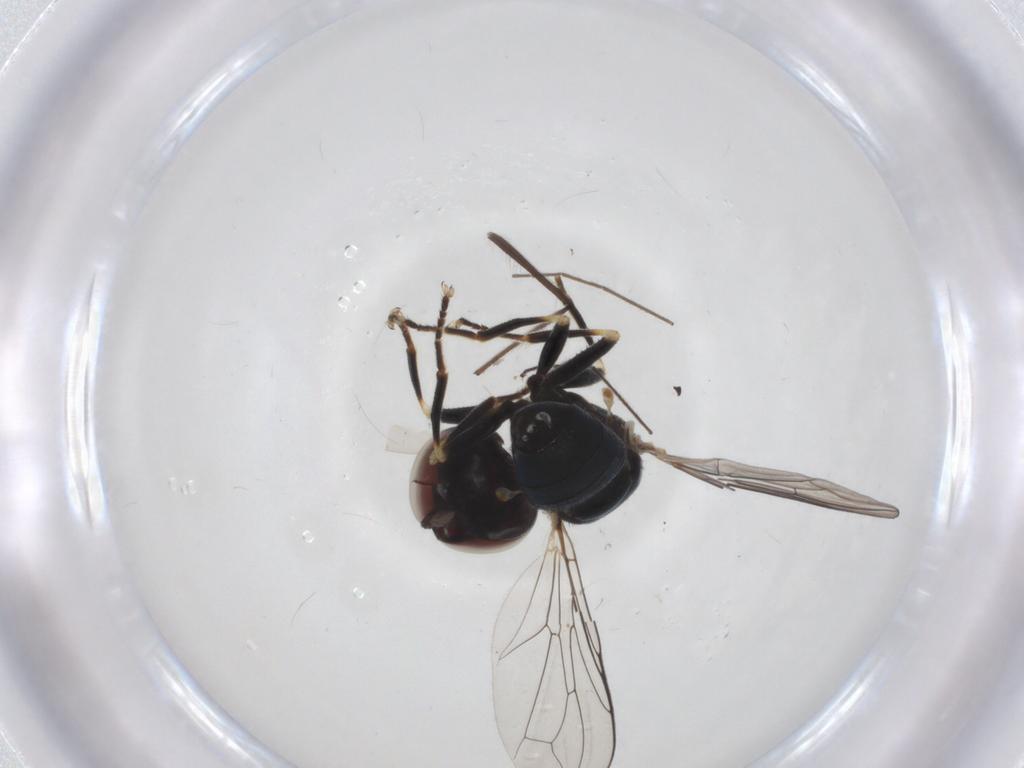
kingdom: Animalia
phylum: Arthropoda
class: Insecta
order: Diptera
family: Pipunculidae
